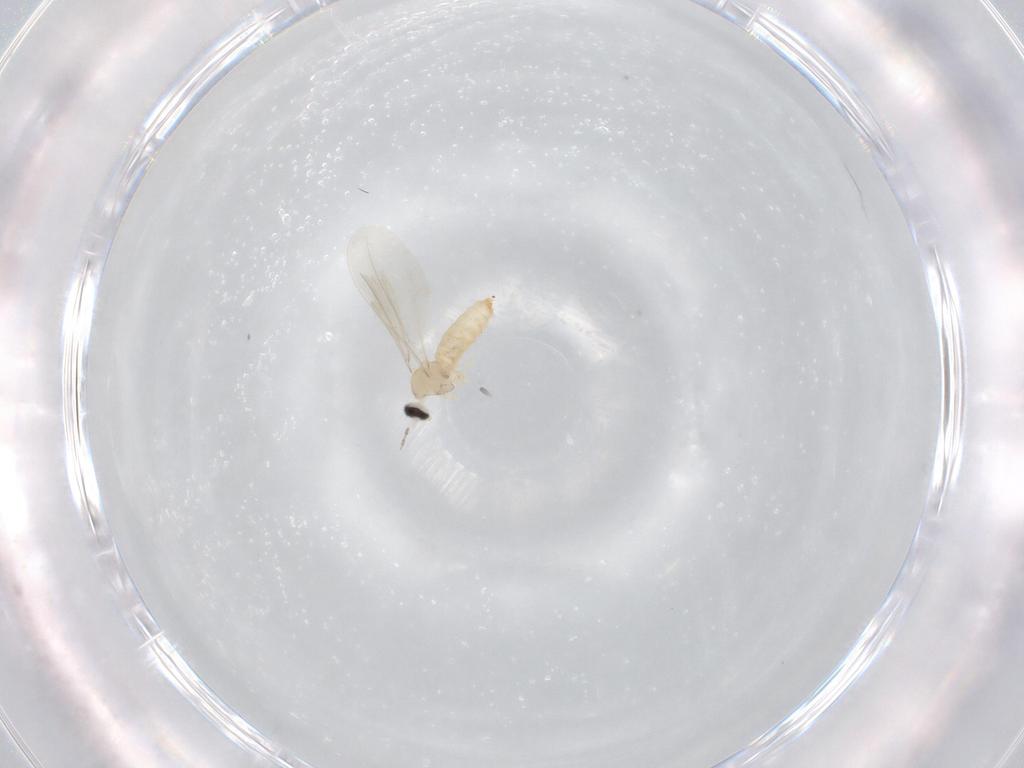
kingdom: Animalia
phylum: Arthropoda
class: Insecta
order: Diptera
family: Cecidomyiidae
